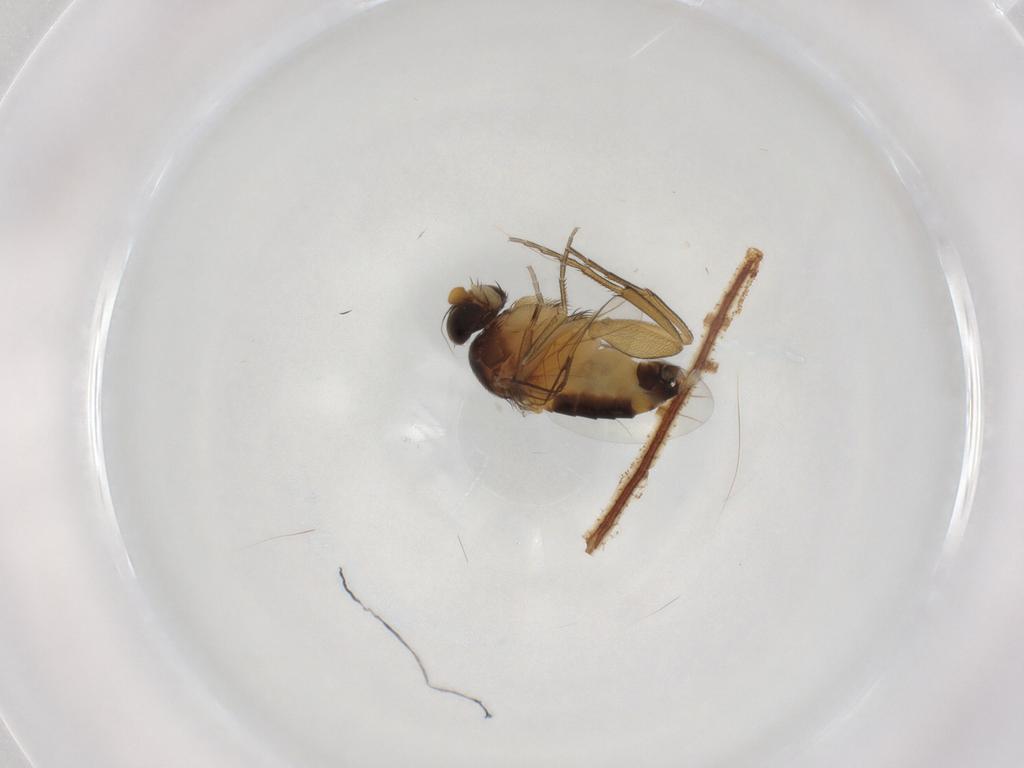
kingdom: Animalia
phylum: Arthropoda
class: Insecta
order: Diptera
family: Phoridae
